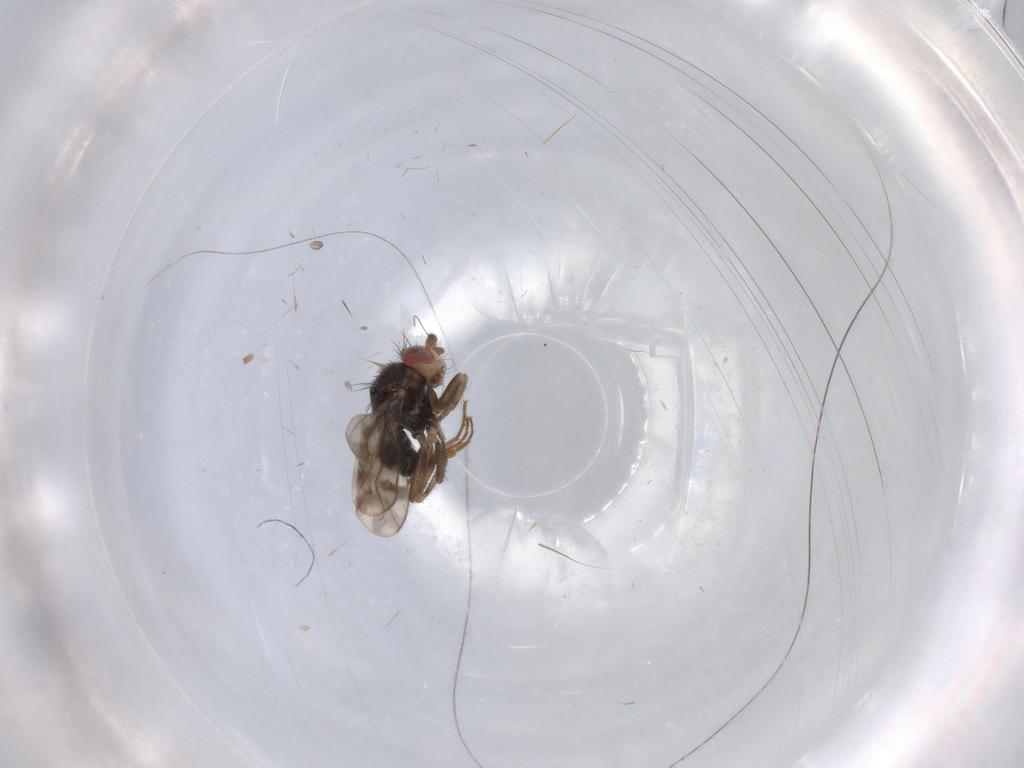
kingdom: Animalia
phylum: Arthropoda
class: Insecta
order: Diptera
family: Sphaeroceridae
